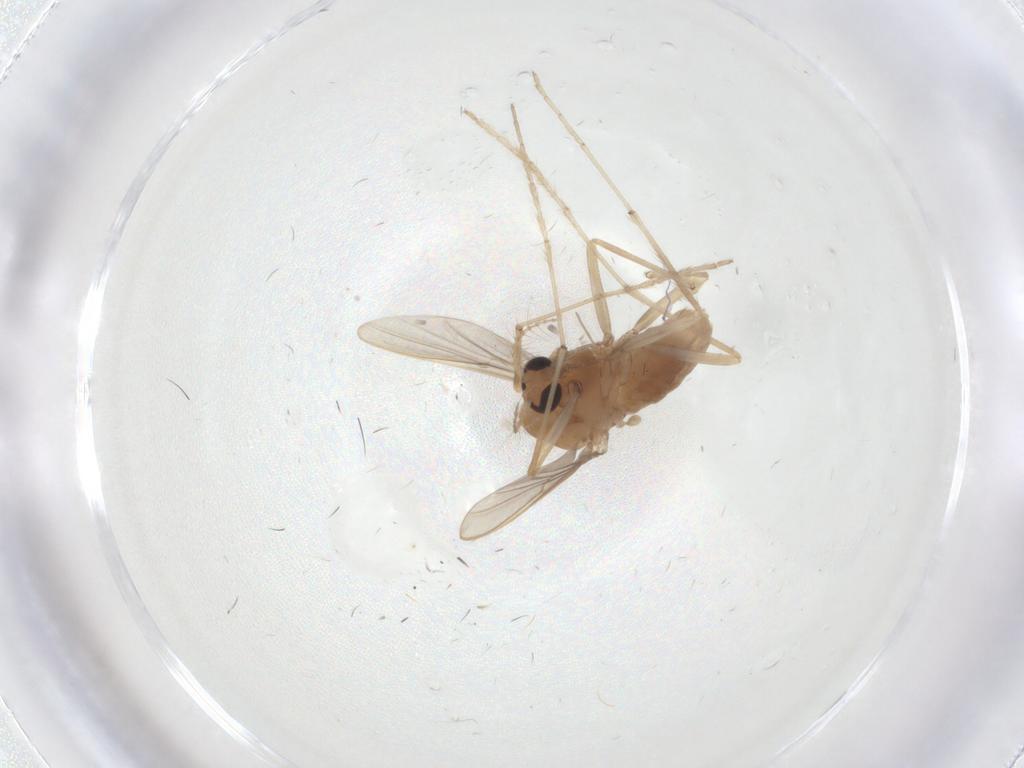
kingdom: Animalia
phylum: Arthropoda
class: Insecta
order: Diptera
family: Chironomidae
